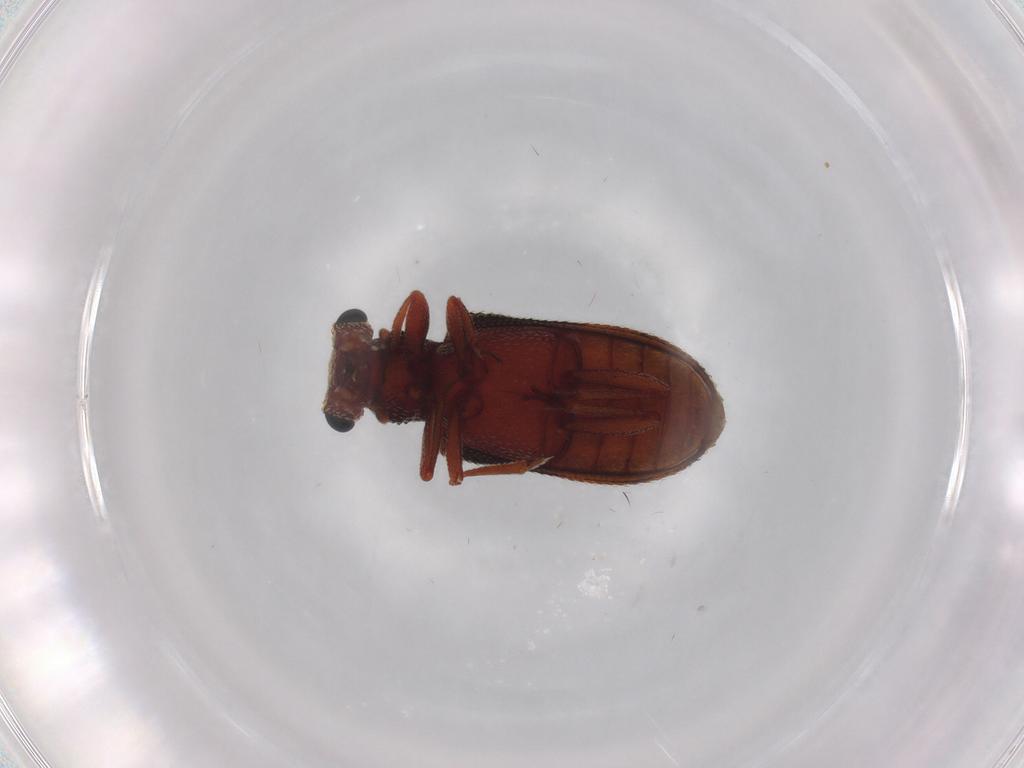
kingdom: Animalia
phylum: Arthropoda
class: Insecta
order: Coleoptera
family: Zopheridae
